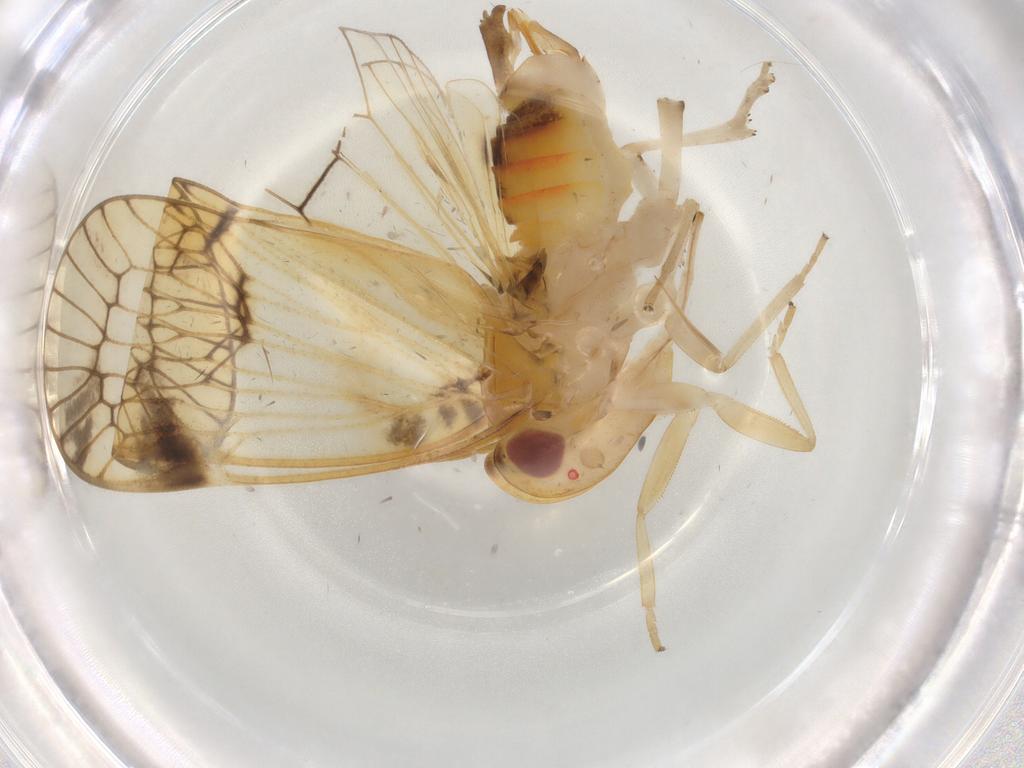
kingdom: Animalia
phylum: Arthropoda
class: Insecta
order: Hemiptera
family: Cixiidae
